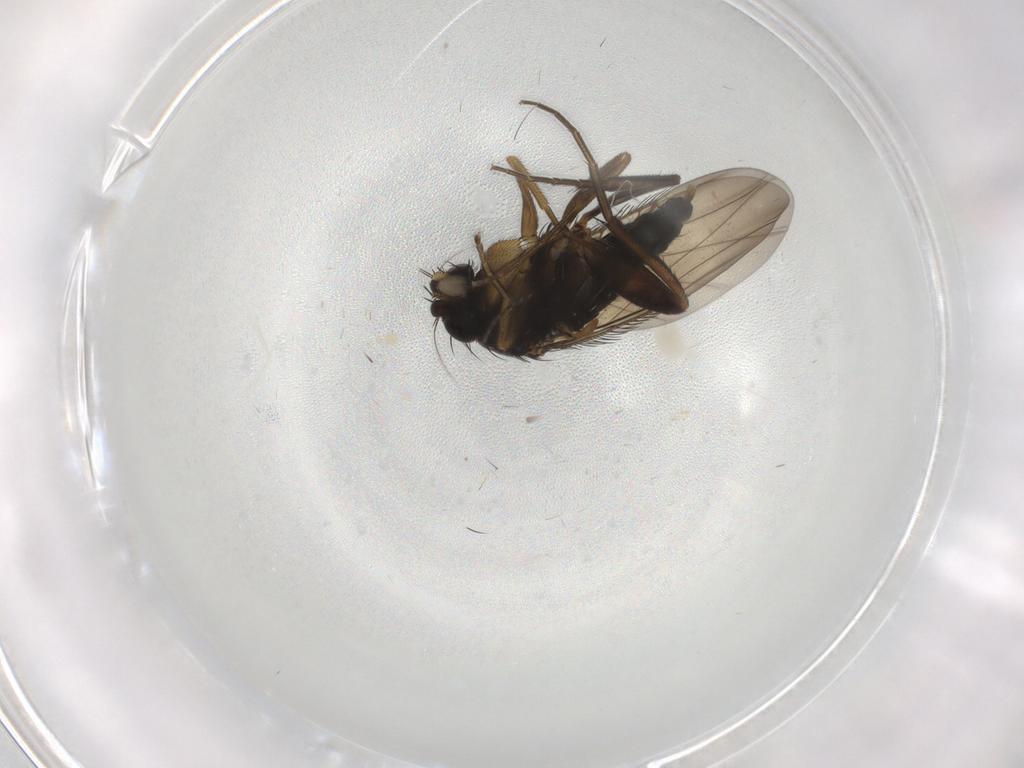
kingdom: Animalia
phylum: Arthropoda
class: Insecta
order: Diptera
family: Phoridae
